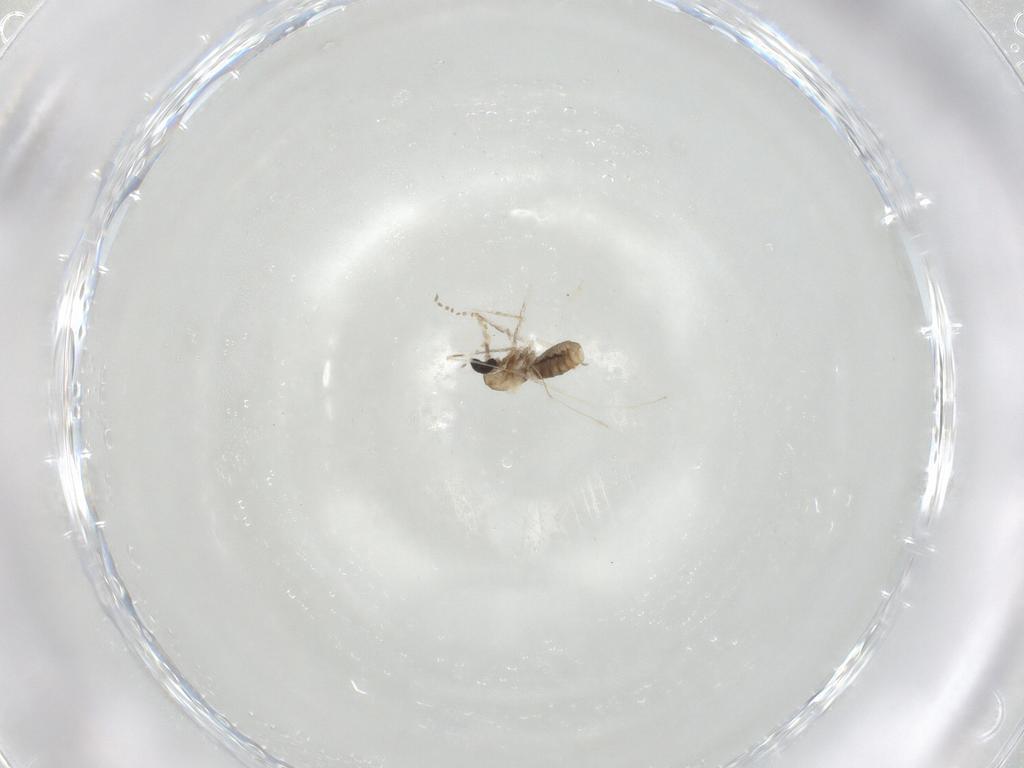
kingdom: Animalia
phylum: Arthropoda
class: Insecta
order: Diptera
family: Cecidomyiidae
